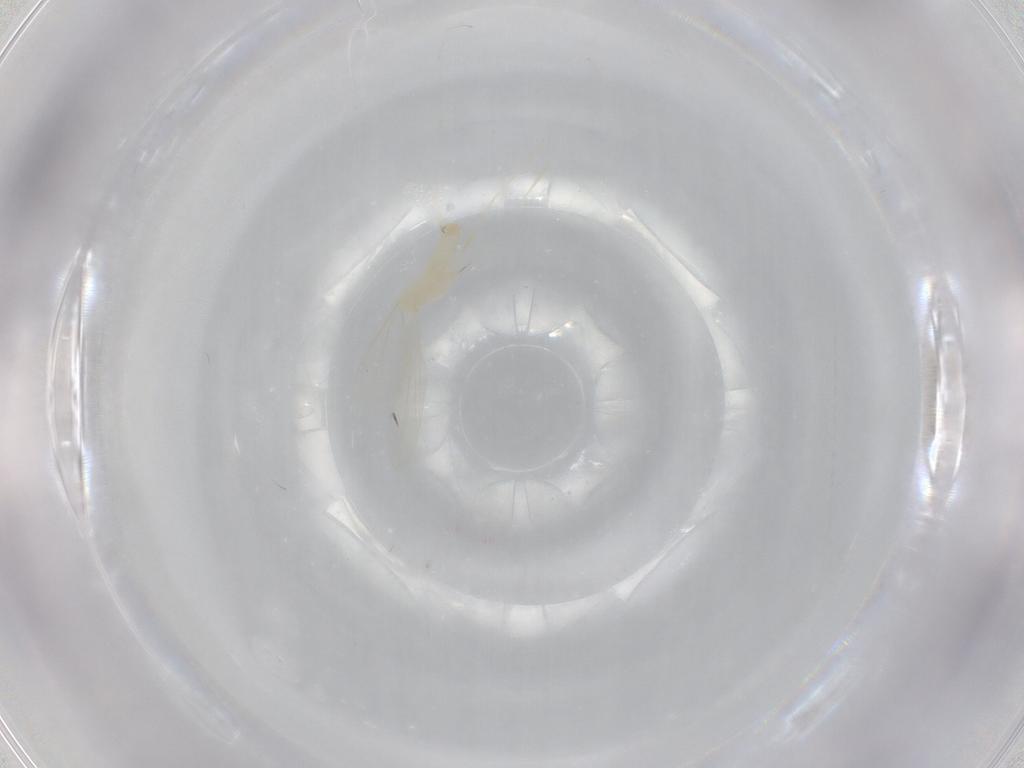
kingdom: Animalia
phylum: Arthropoda
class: Insecta
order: Diptera
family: Cecidomyiidae
